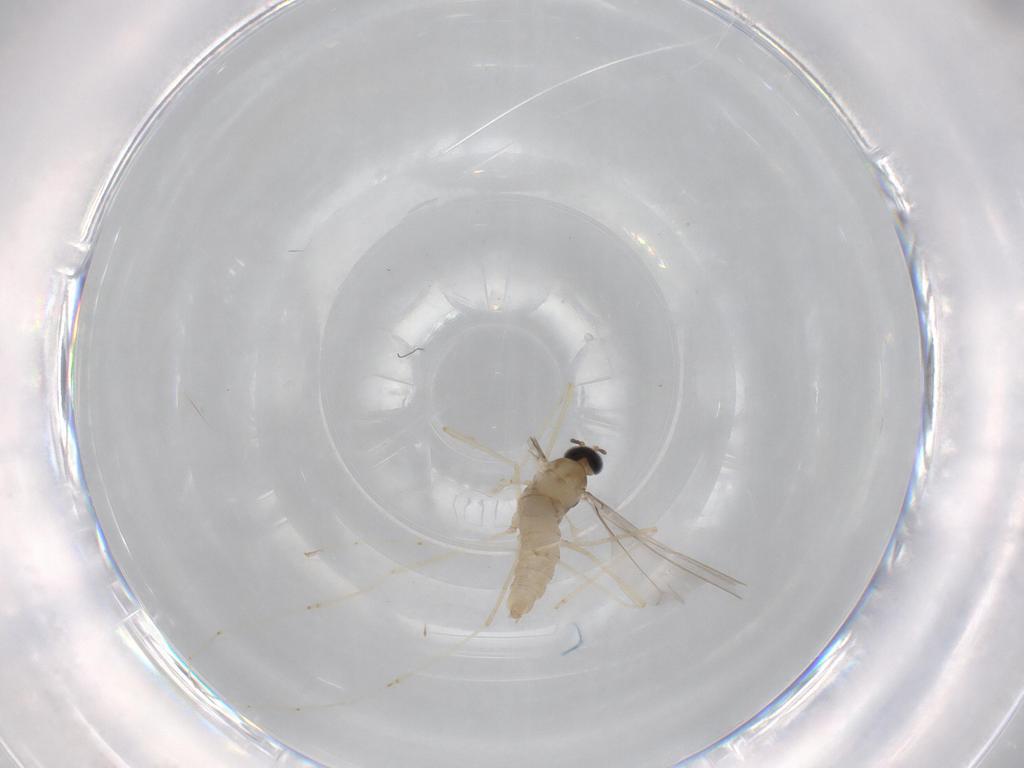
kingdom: Animalia
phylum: Arthropoda
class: Insecta
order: Diptera
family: Cecidomyiidae
